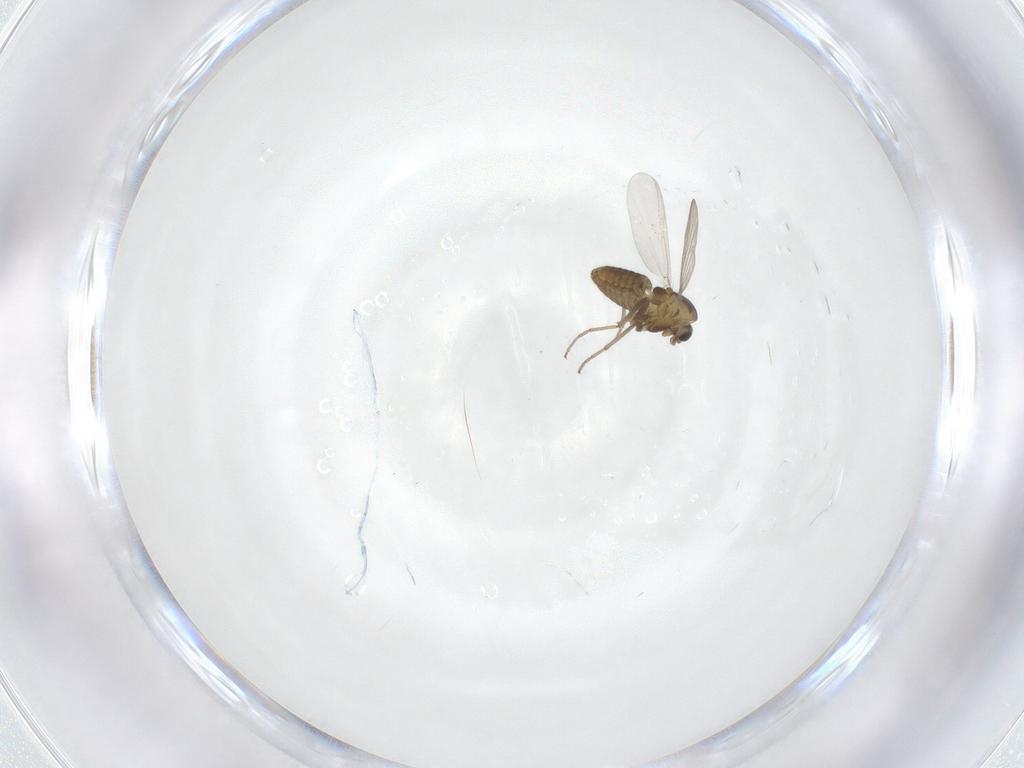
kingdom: Animalia
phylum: Arthropoda
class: Insecta
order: Diptera
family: Chironomidae
